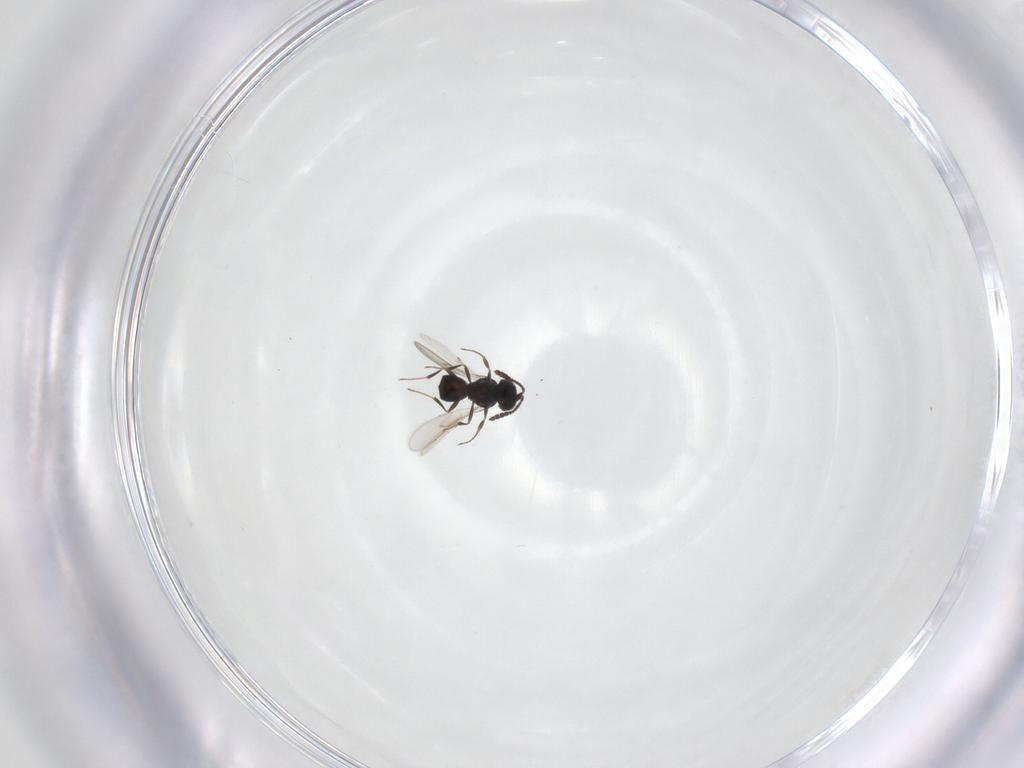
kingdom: Animalia
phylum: Arthropoda
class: Insecta
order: Hymenoptera
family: Scelionidae
